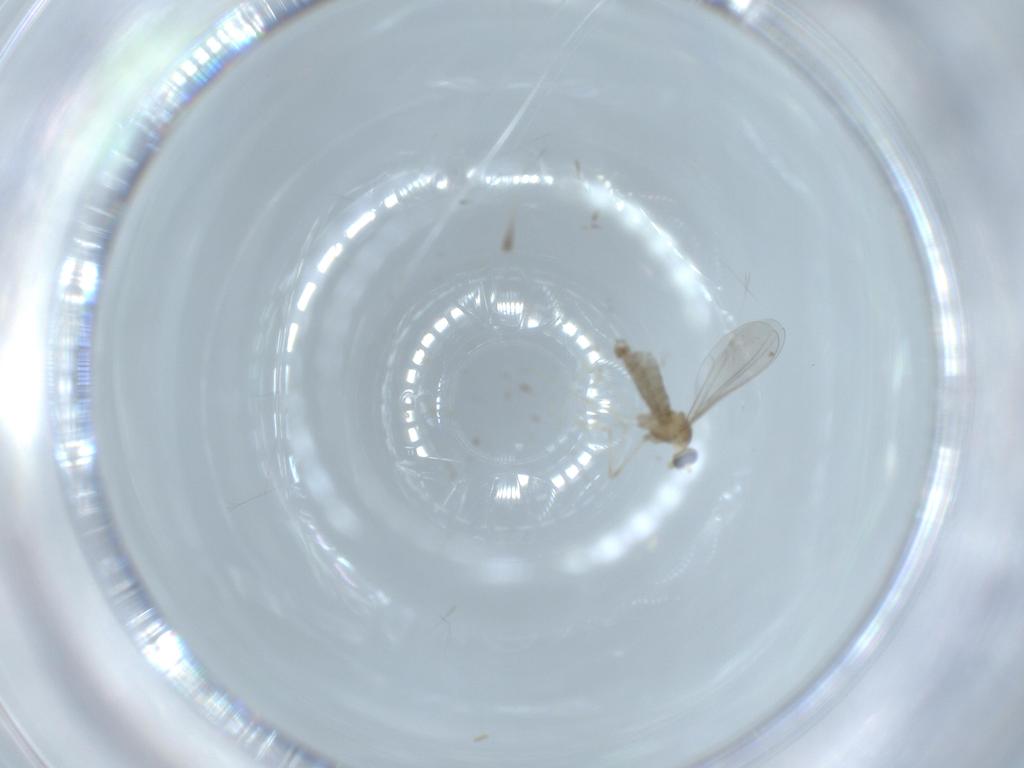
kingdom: Animalia
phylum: Arthropoda
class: Insecta
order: Diptera
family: Cecidomyiidae
